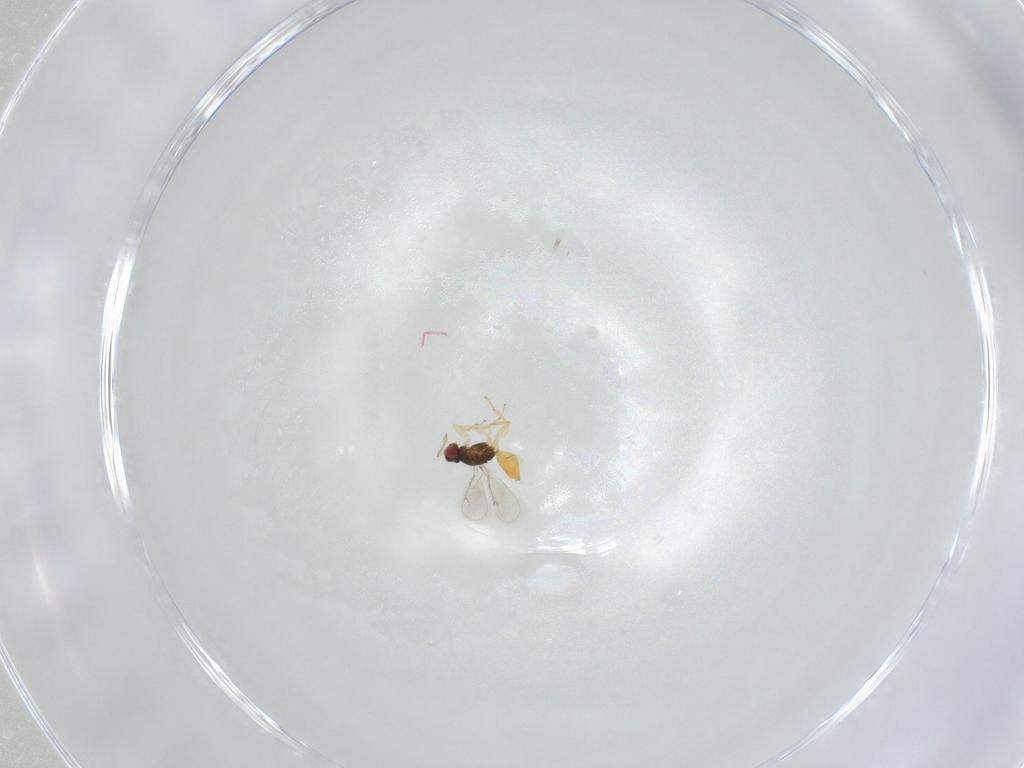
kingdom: Animalia
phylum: Arthropoda
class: Insecta
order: Hymenoptera
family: Eulophidae
